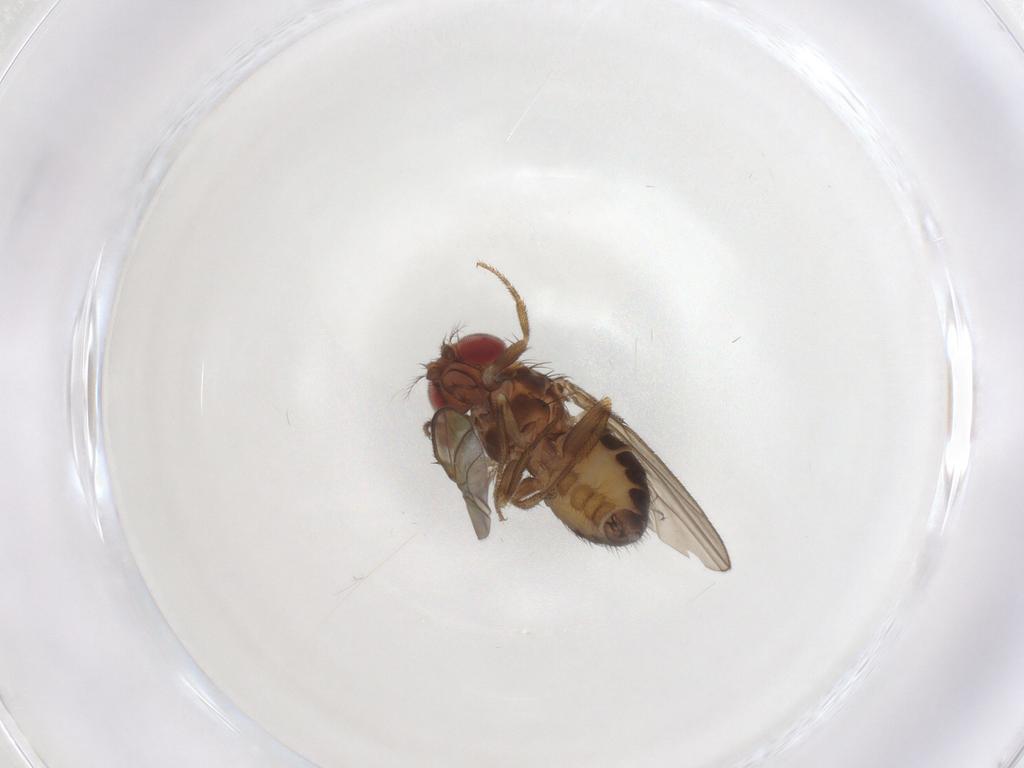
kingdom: Animalia
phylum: Arthropoda
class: Insecta
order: Diptera
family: Drosophilidae
